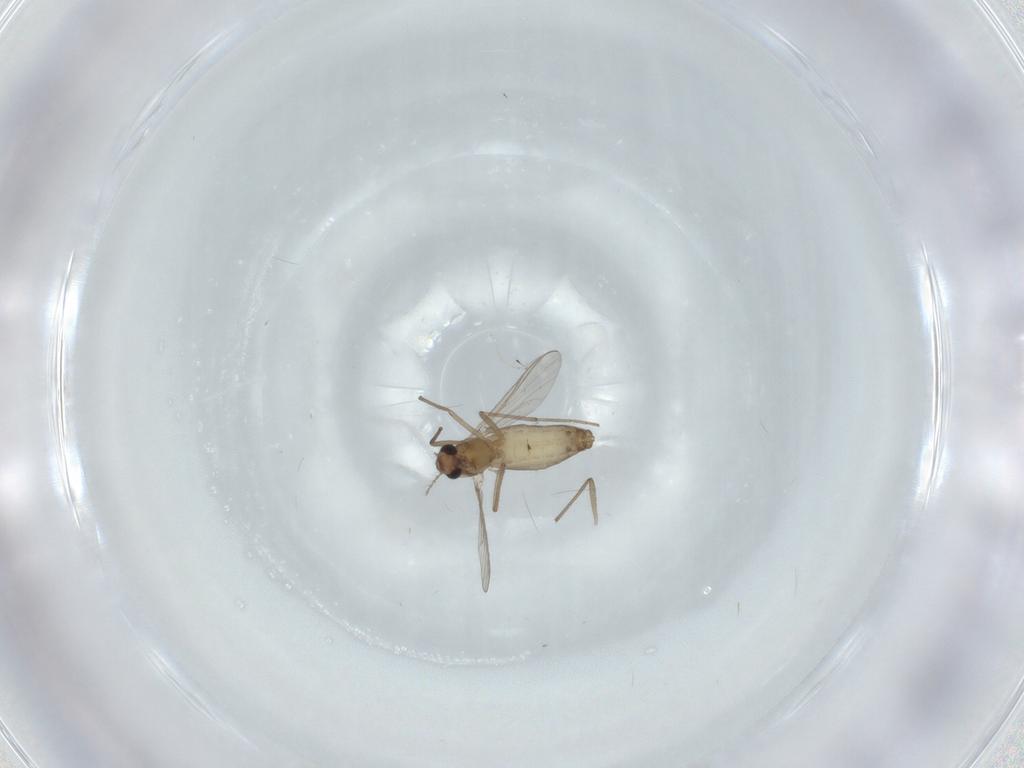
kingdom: Animalia
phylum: Arthropoda
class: Insecta
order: Diptera
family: Chironomidae
